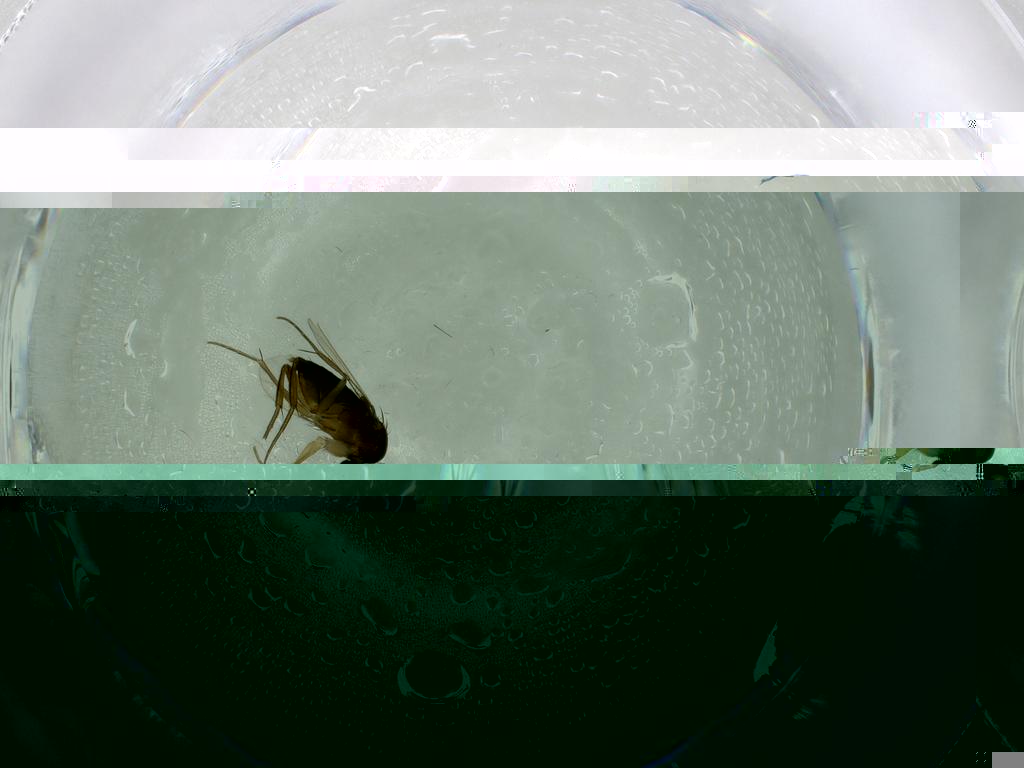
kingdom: Animalia
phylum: Arthropoda
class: Insecta
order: Diptera
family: Phoridae
